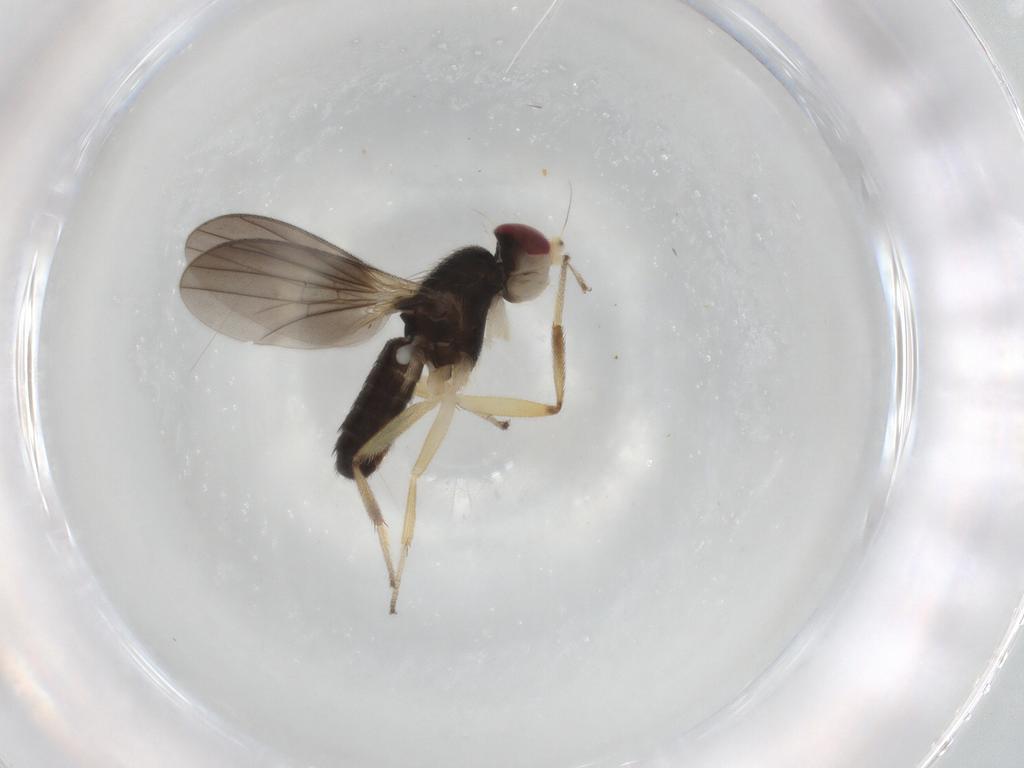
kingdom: Animalia
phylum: Arthropoda
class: Insecta
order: Diptera
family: Clusiidae
